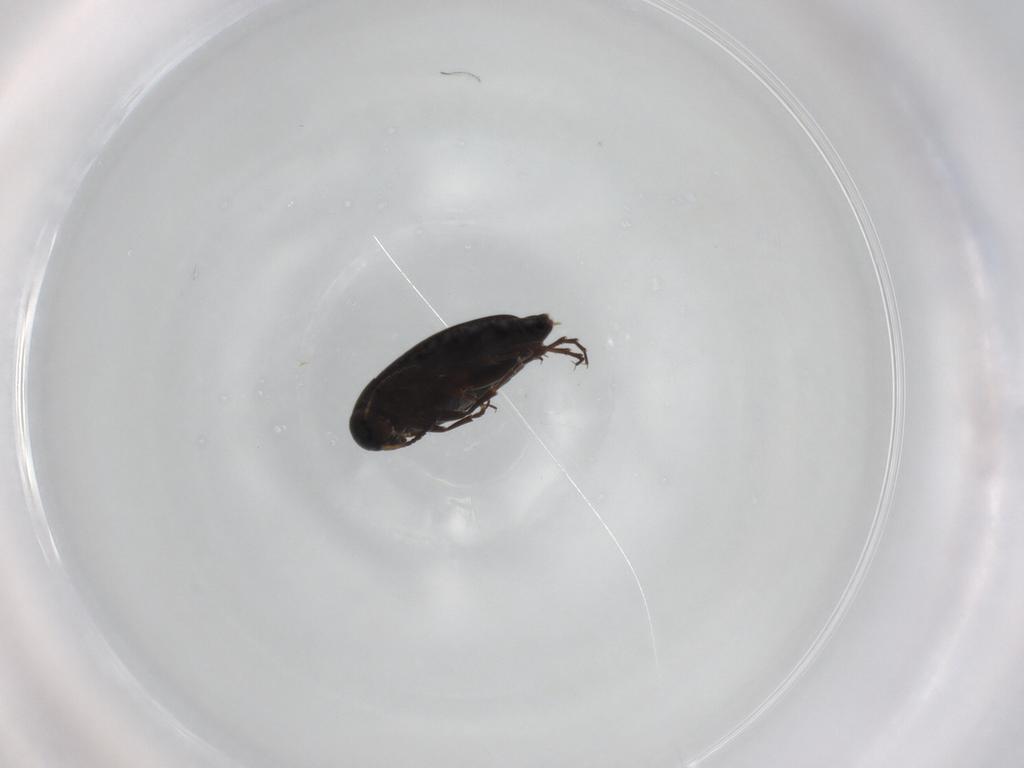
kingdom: Animalia
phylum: Arthropoda
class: Insecta
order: Coleoptera
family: Scraptiidae
